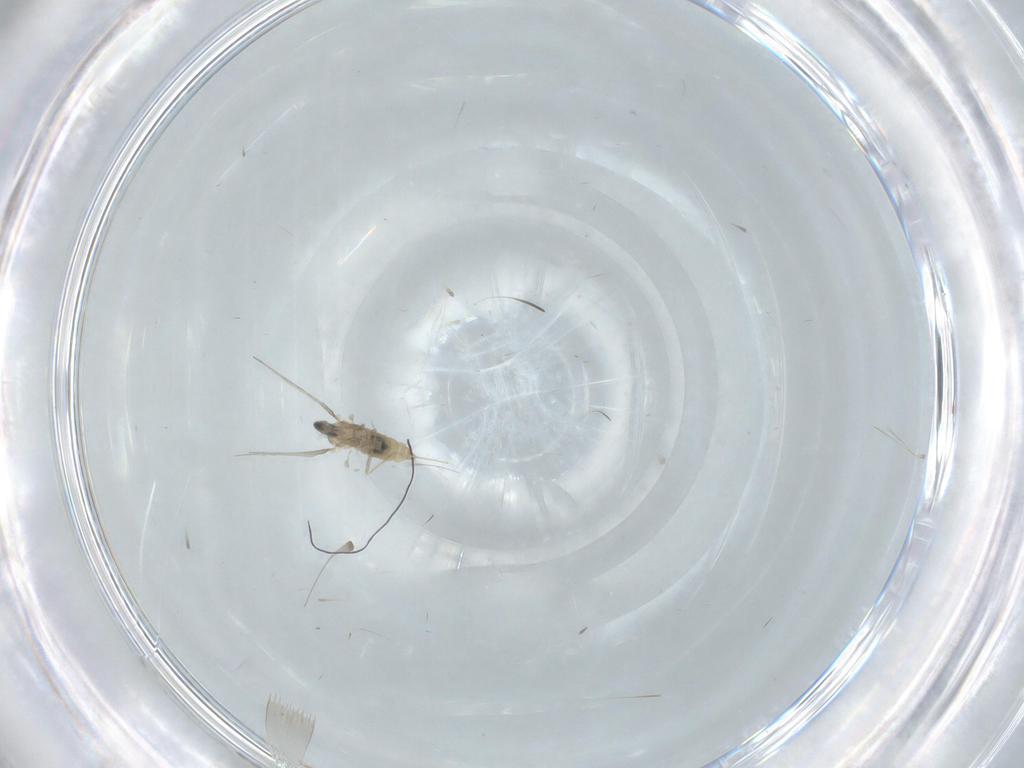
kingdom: Animalia
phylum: Arthropoda
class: Insecta
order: Diptera
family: Cecidomyiidae
